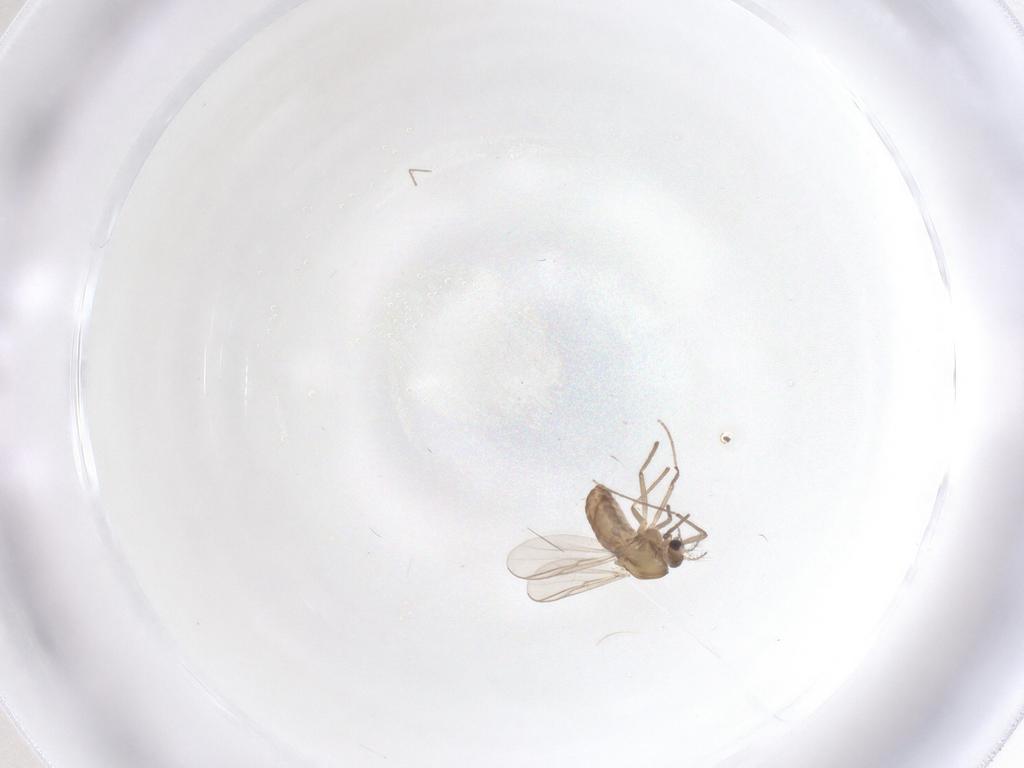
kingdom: Animalia
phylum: Arthropoda
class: Insecta
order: Diptera
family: Chironomidae
